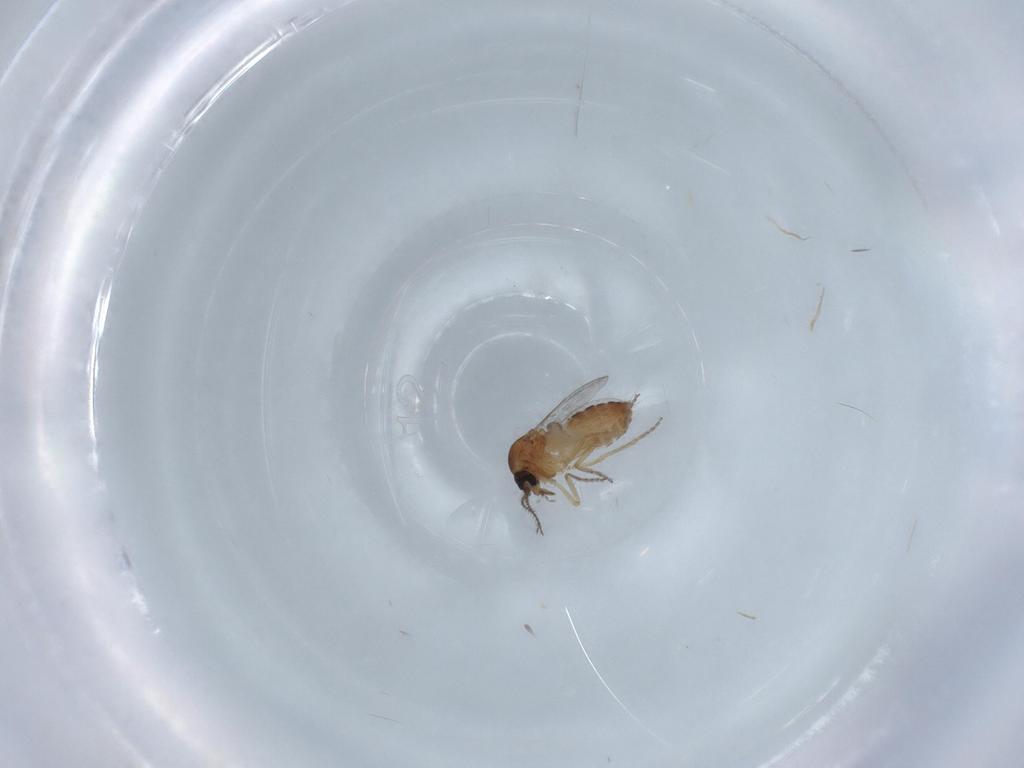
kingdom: Animalia
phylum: Arthropoda
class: Insecta
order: Diptera
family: Ceratopogonidae
